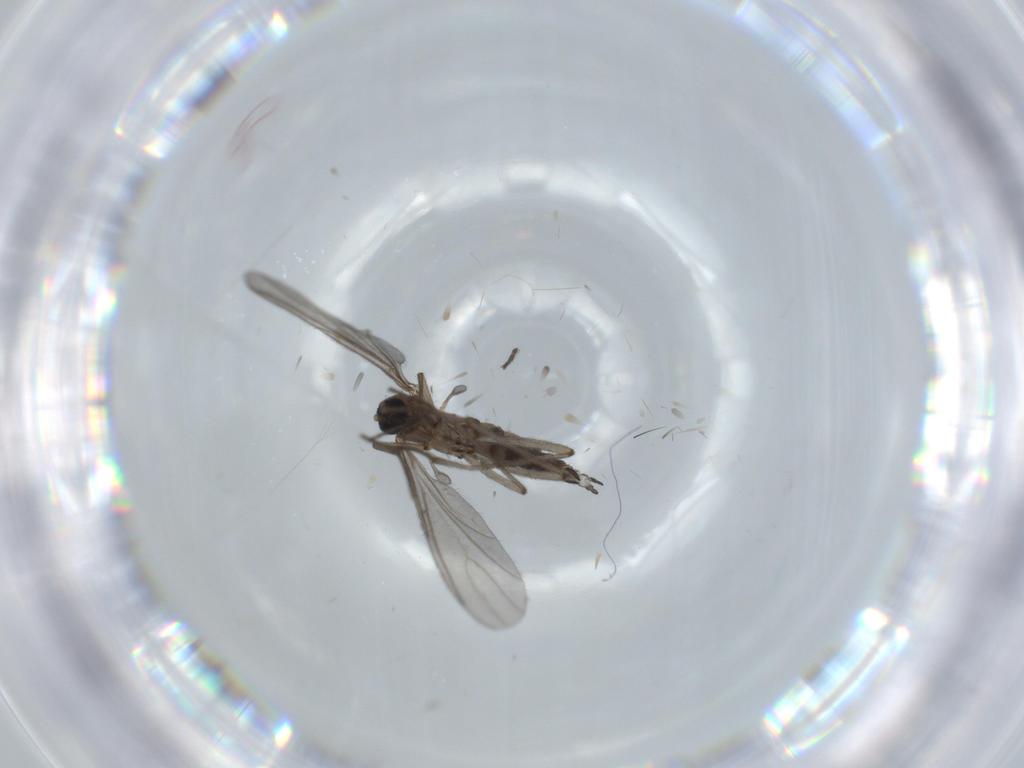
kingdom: Animalia
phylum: Arthropoda
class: Insecta
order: Diptera
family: Sciaridae
